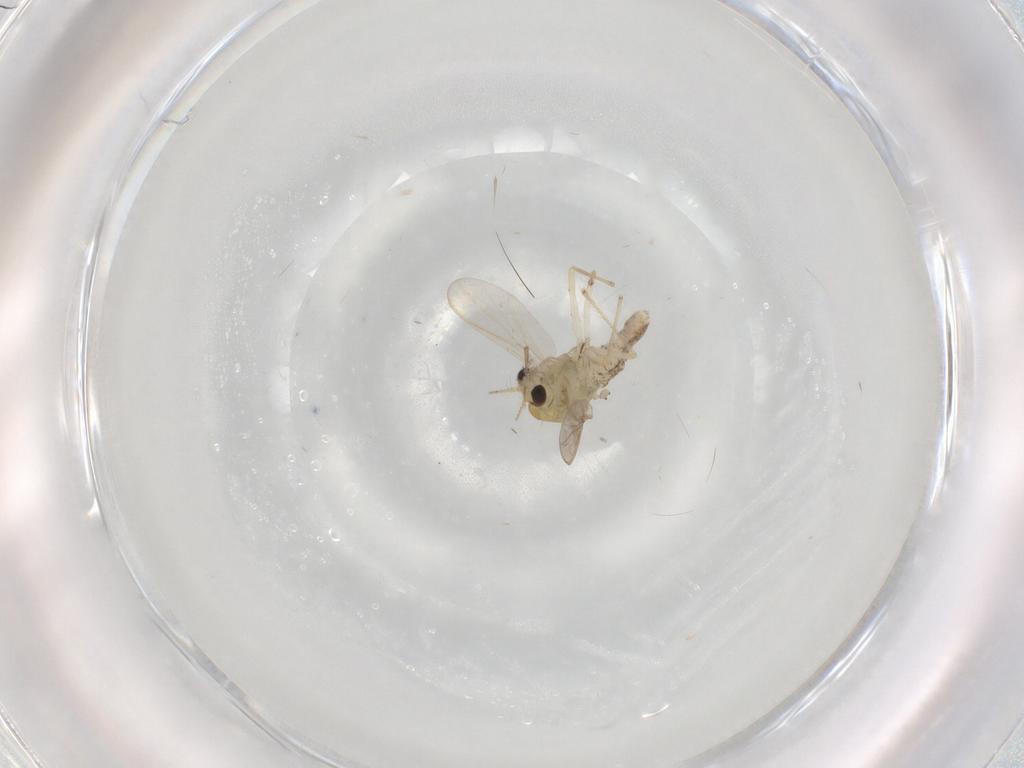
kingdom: Animalia
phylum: Arthropoda
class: Insecta
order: Diptera
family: Chironomidae
